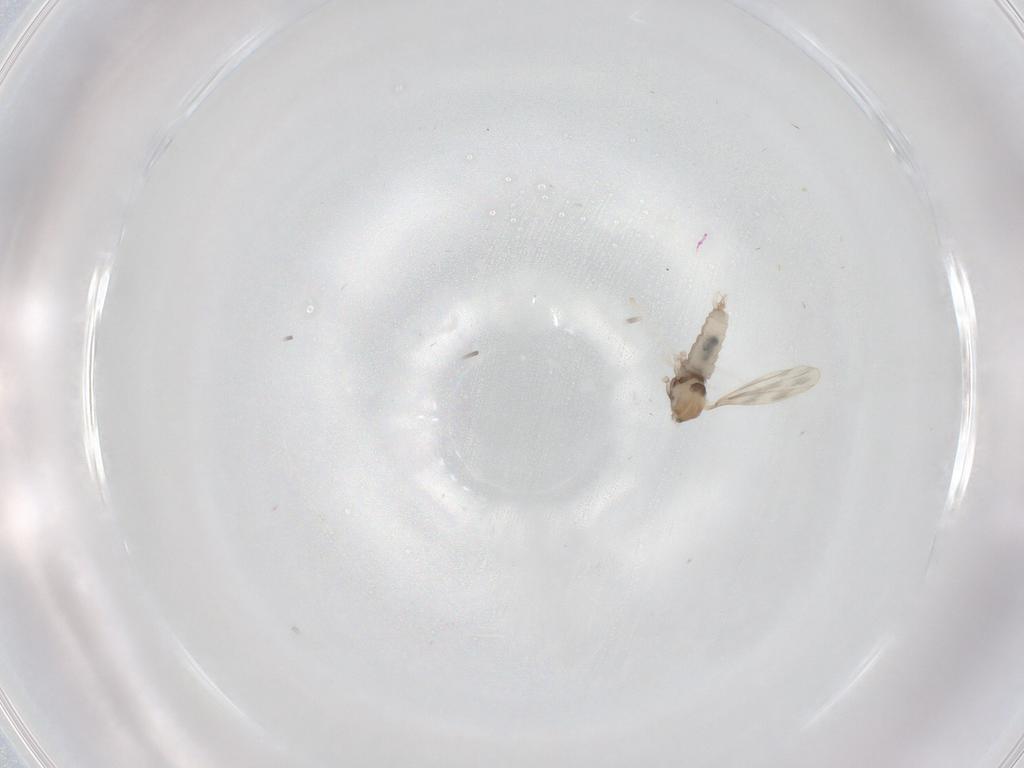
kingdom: Animalia
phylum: Arthropoda
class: Insecta
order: Diptera
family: Cecidomyiidae
